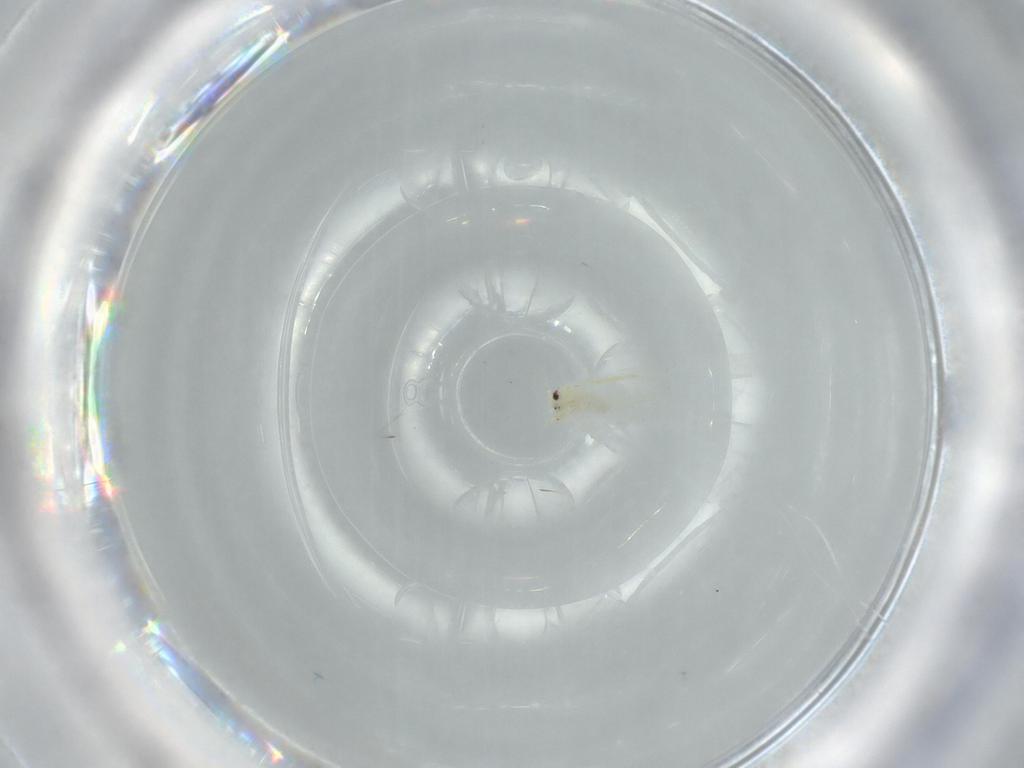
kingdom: Animalia
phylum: Arthropoda
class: Insecta
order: Hemiptera
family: Aleyrodidae
